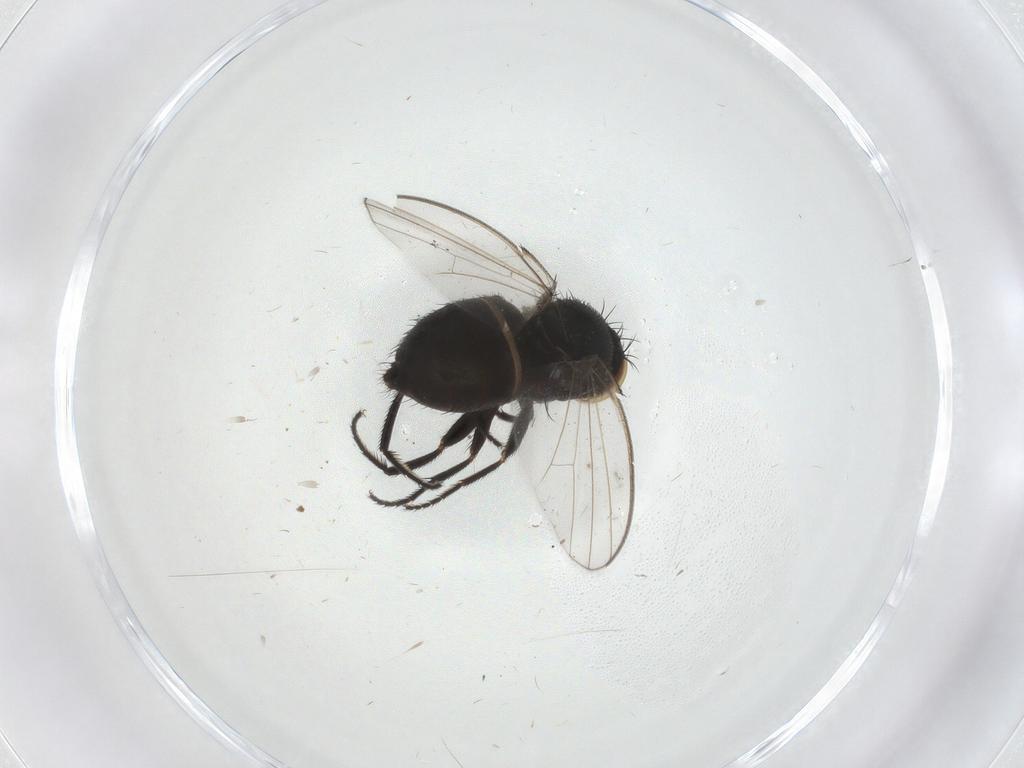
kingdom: Animalia
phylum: Arthropoda
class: Insecta
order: Diptera
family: Milichiidae
